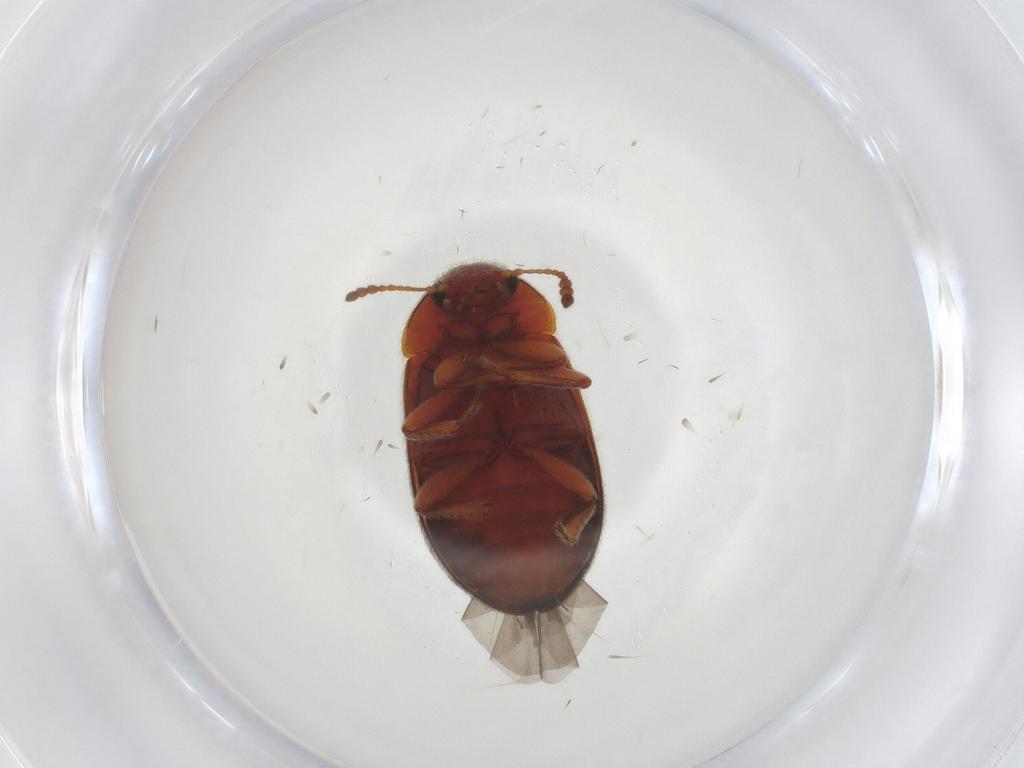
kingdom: Animalia
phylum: Arthropoda
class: Insecta
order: Coleoptera
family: Byturidae
